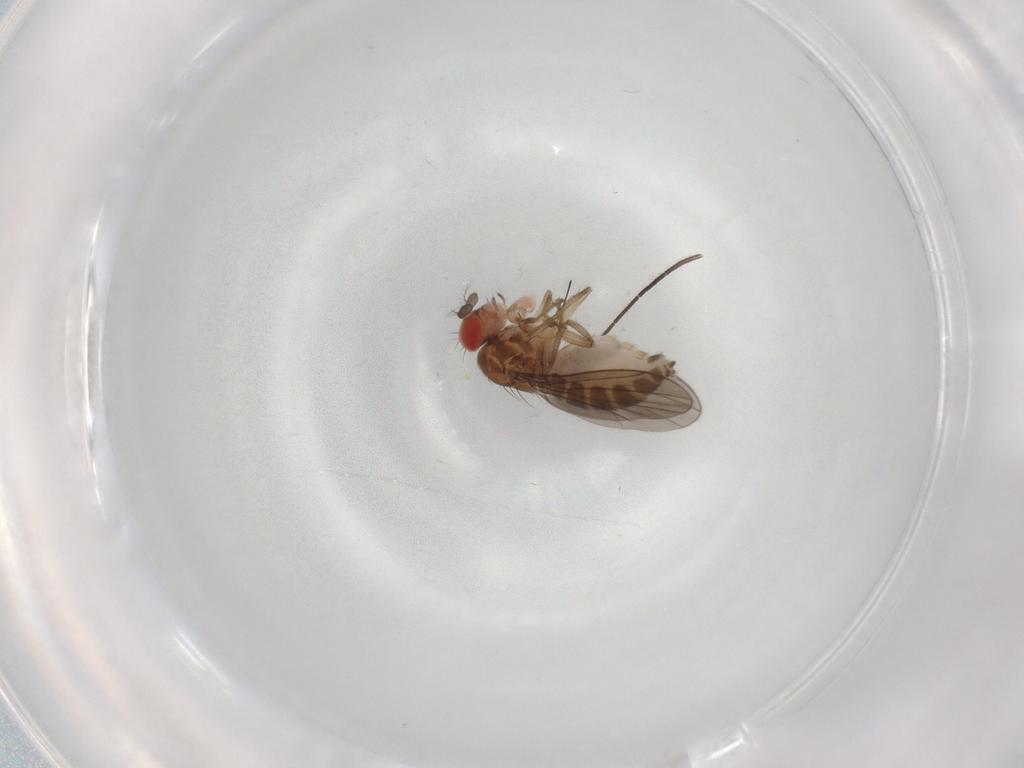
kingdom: Animalia
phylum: Arthropoda
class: Insecta
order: Diptera
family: Drosophilidae
